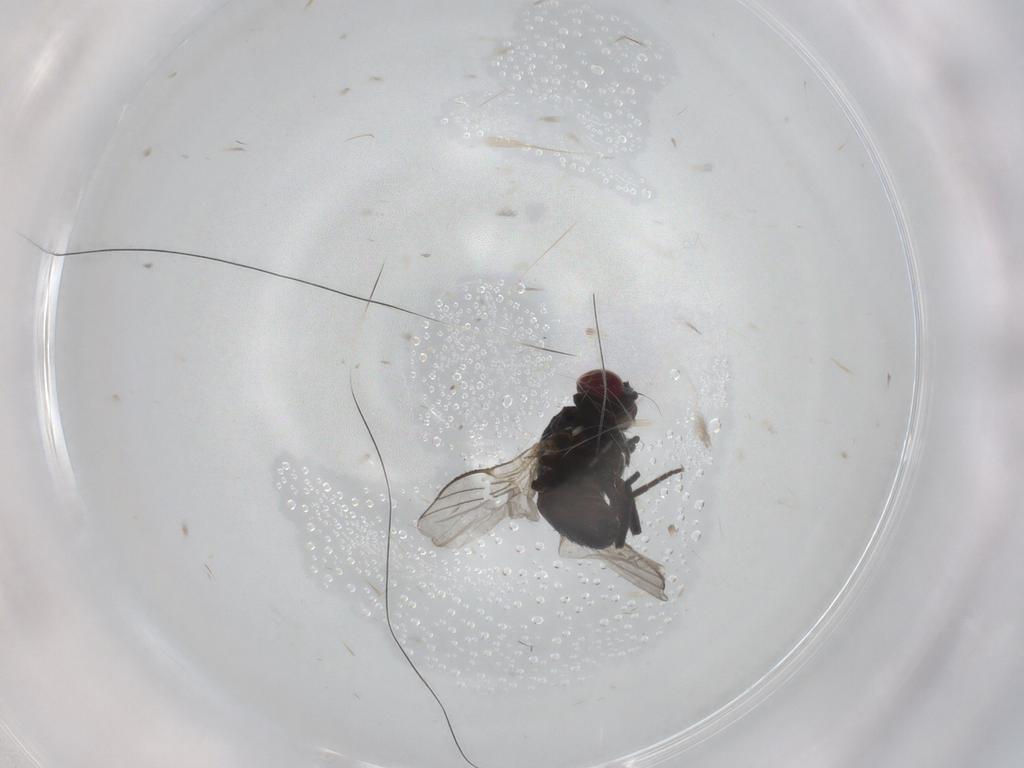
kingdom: Animalia
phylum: Arthropoda
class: Insecta
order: Diptera
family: Agromyzidae
